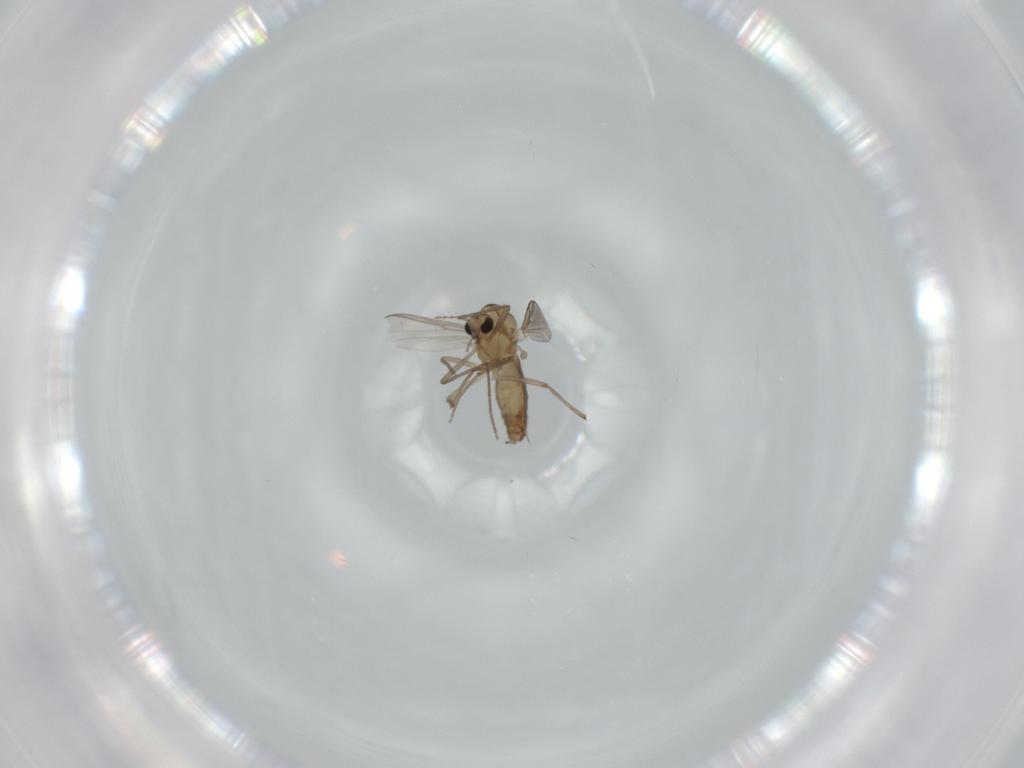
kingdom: Animalia
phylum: Arthropoda
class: Insecta
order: Diptera
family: Chironomidae
